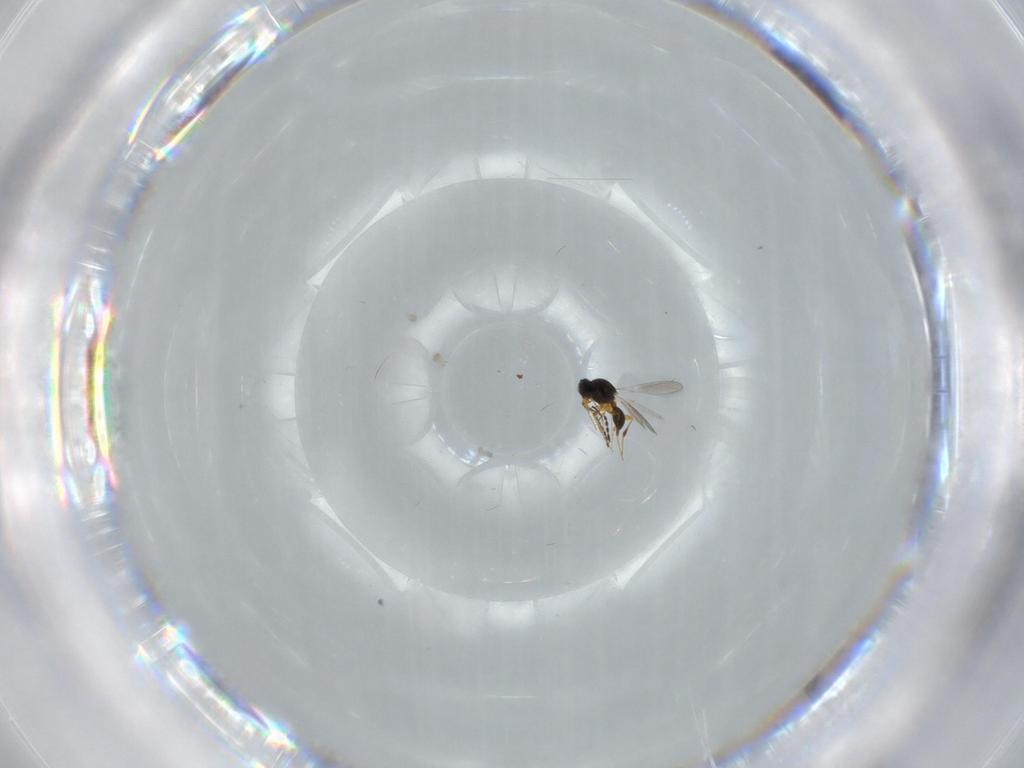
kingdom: Animalia
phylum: Arthropoda
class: Insecta
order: Hymenoptera
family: Platygastridae
